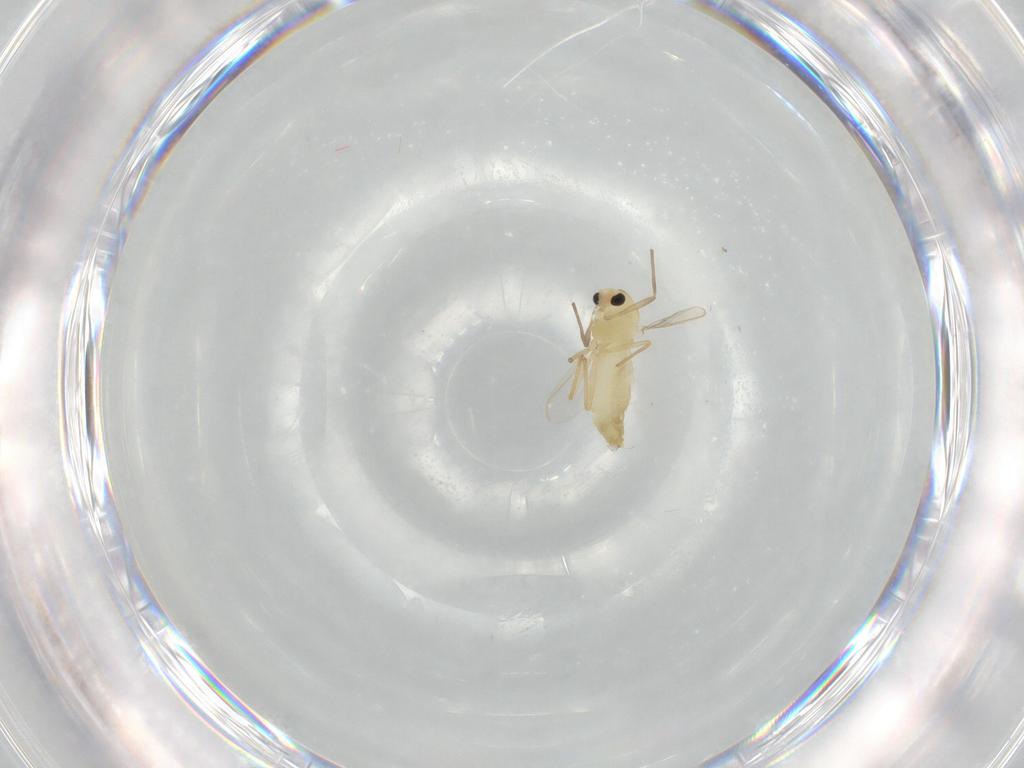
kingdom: Animalia
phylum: Arthropoda
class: Insecta
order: Diptera
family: Chironomidae
